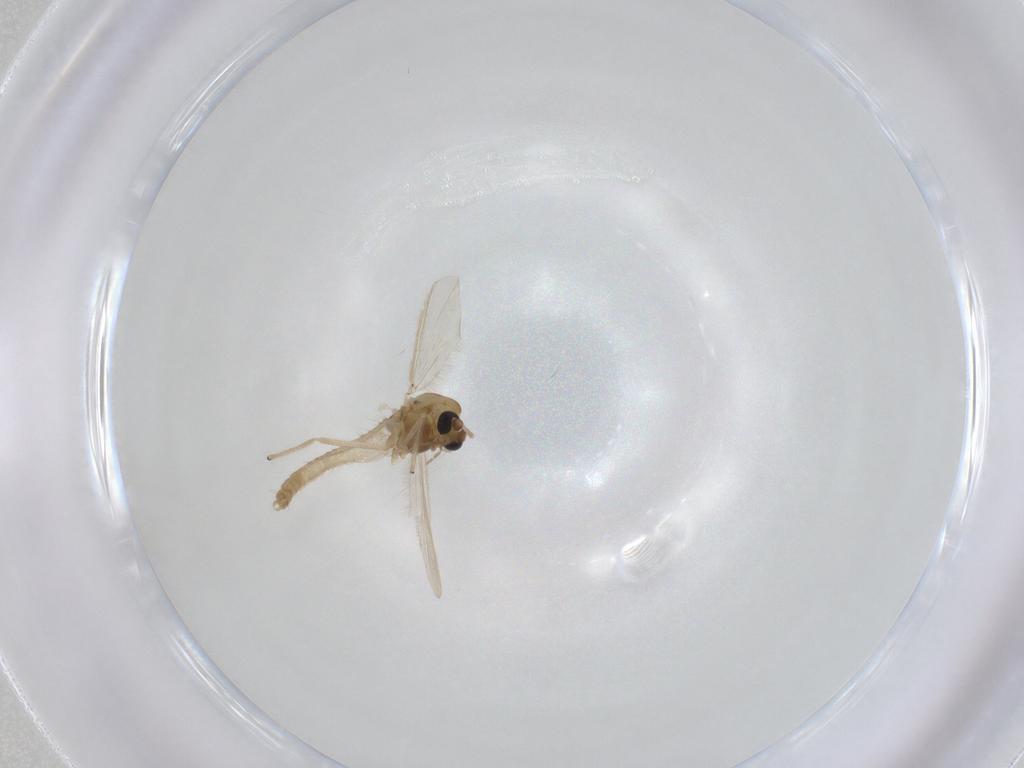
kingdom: Animalia
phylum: Arthropoda
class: Insecta
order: Diptera
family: Chironomidae
